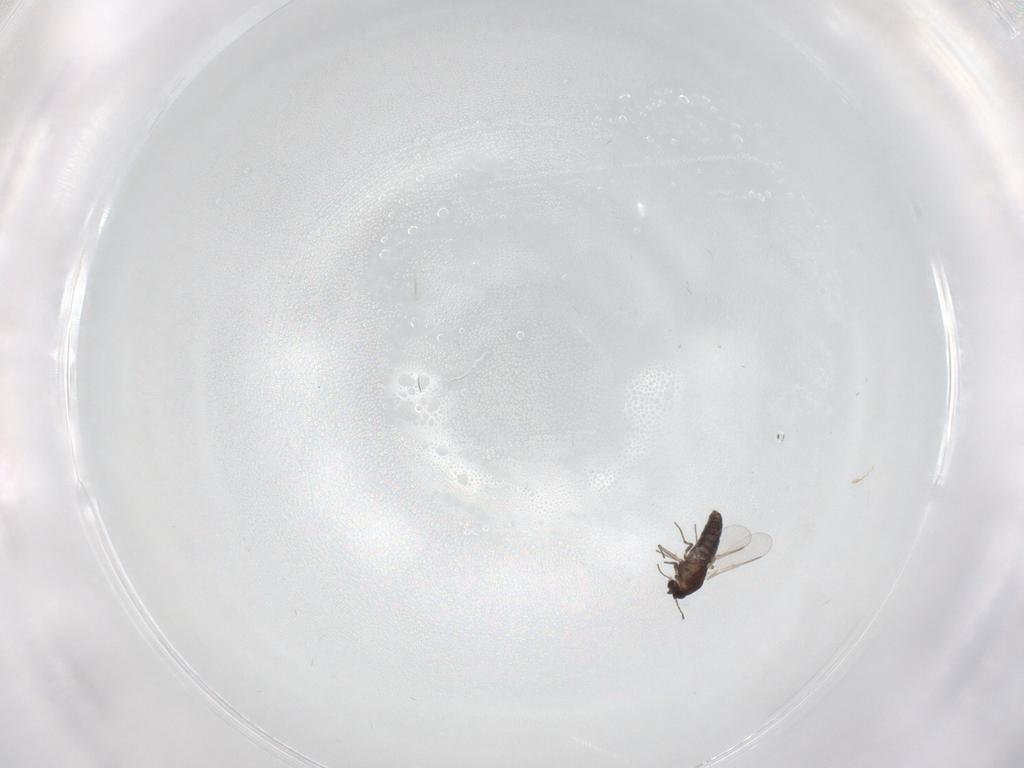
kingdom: Animalia
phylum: Arthropoda
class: Insecta
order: Diptera
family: Chironomidae
